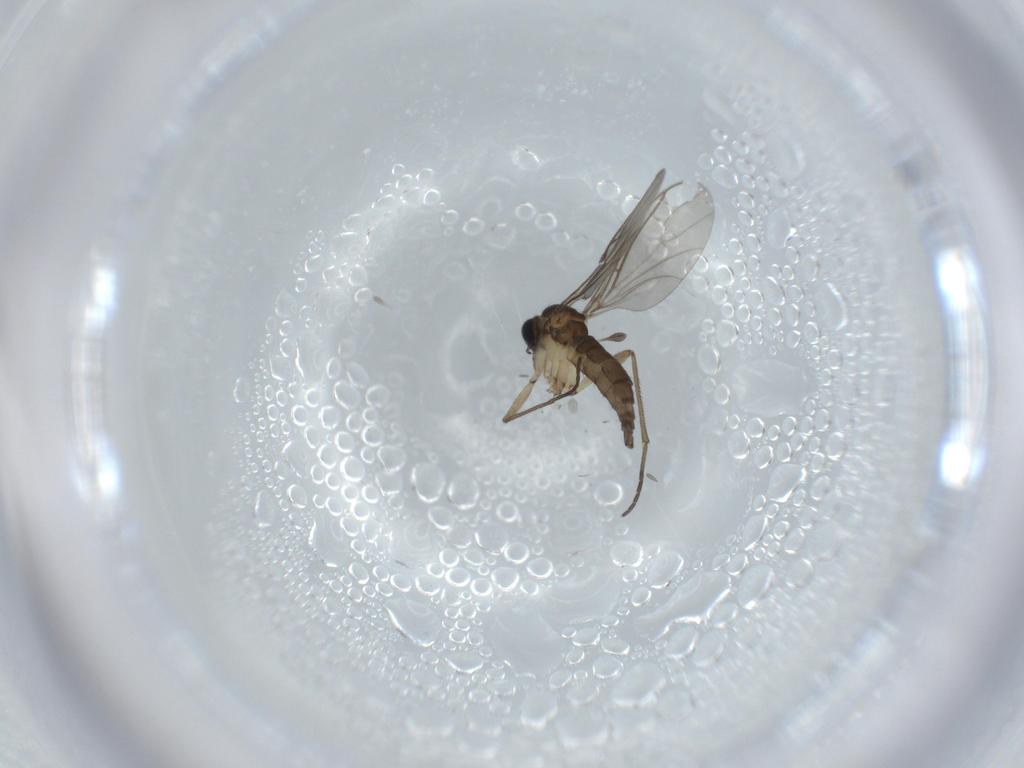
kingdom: Animalia
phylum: Arthropoda
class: Insecta
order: Diptera
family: Sciaridae
